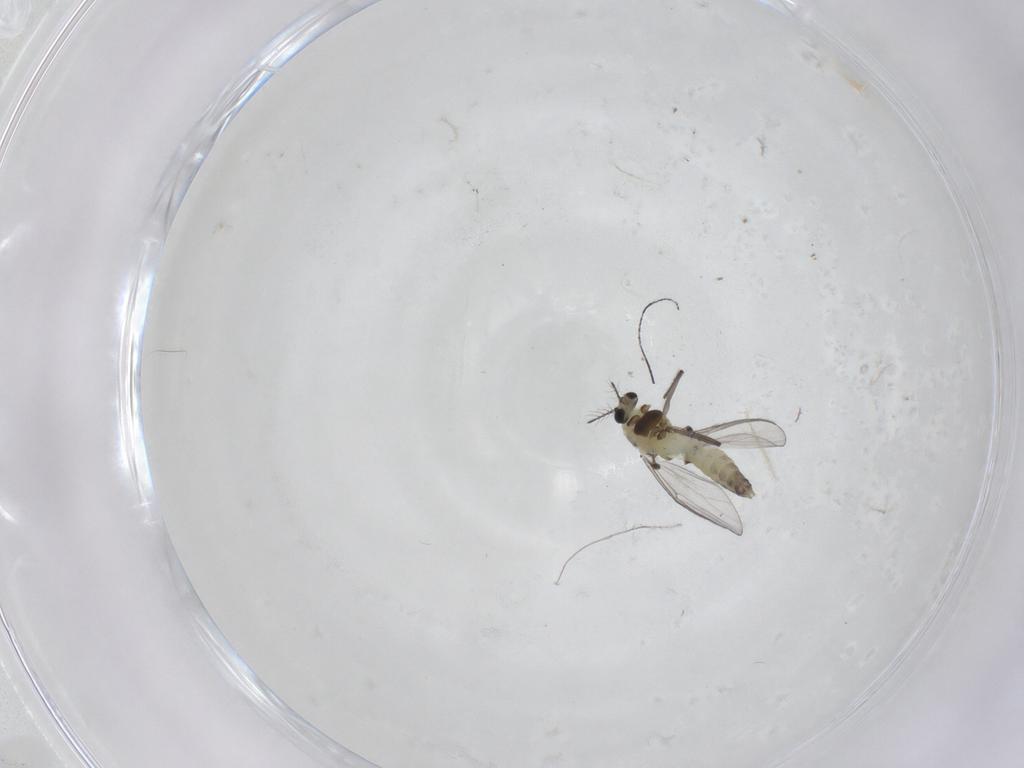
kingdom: Animalia
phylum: Arthropoda
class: Insecta
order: Diptera
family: Chironomidae
